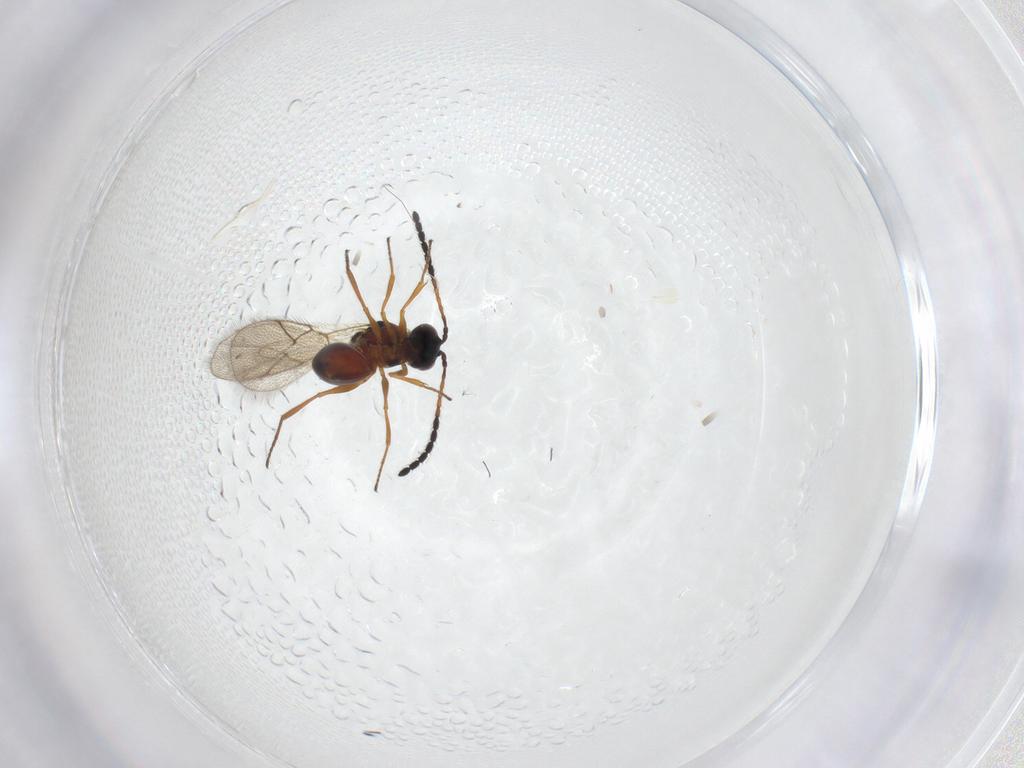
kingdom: Animalia
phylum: Arthropoda
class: Insecta
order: Hymenoptera
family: Figitidae
